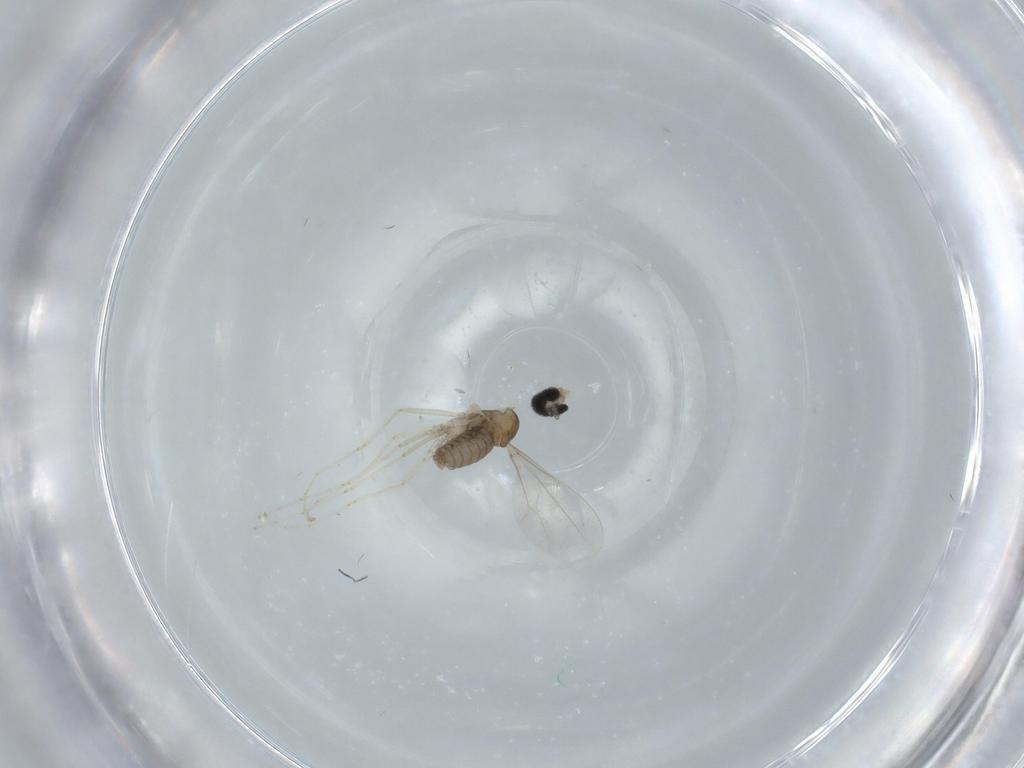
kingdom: Animalia
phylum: Arthropoda
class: Insecta
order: Diptera
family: Cecidomyiidae
